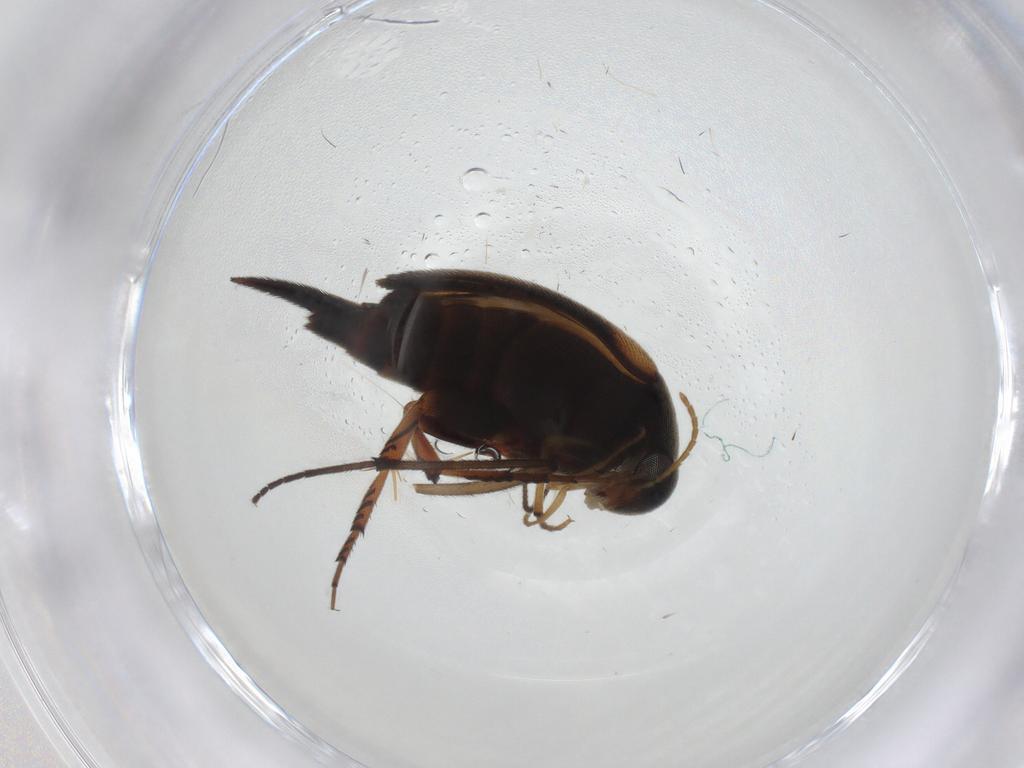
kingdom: Animalia
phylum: Arthropoda
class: Insecta
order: Coleoptera
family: Mordellidae
